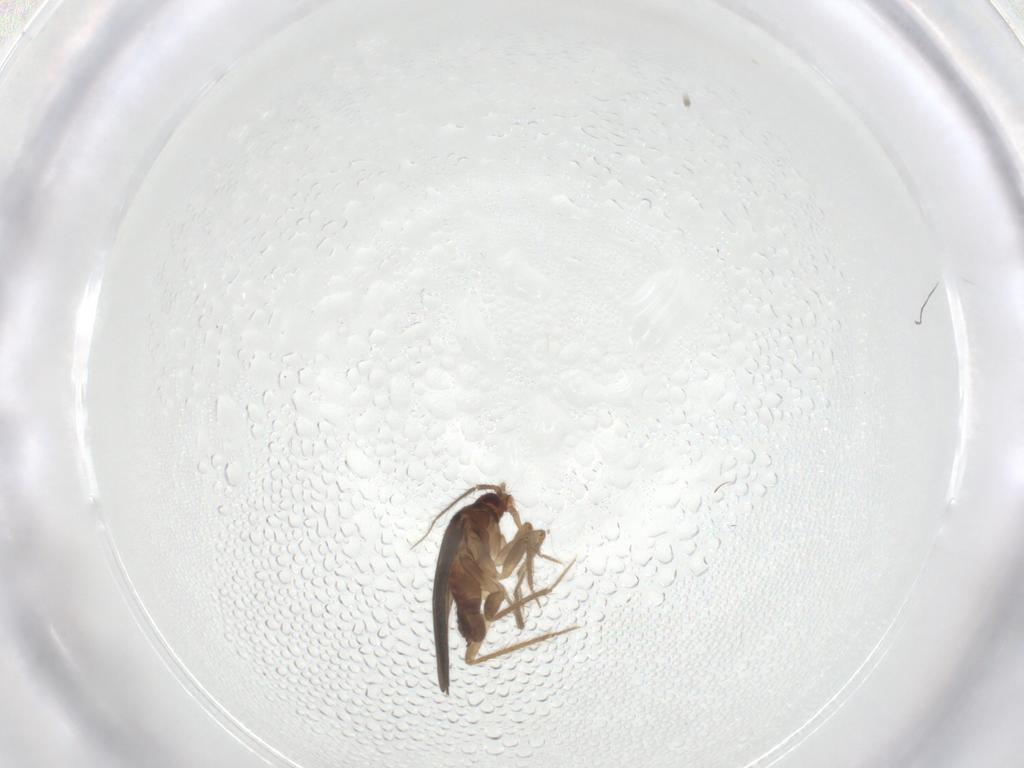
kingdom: Animalia
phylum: Arthropoda
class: Insecta
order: Hemiptera
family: Ceratocombidae
